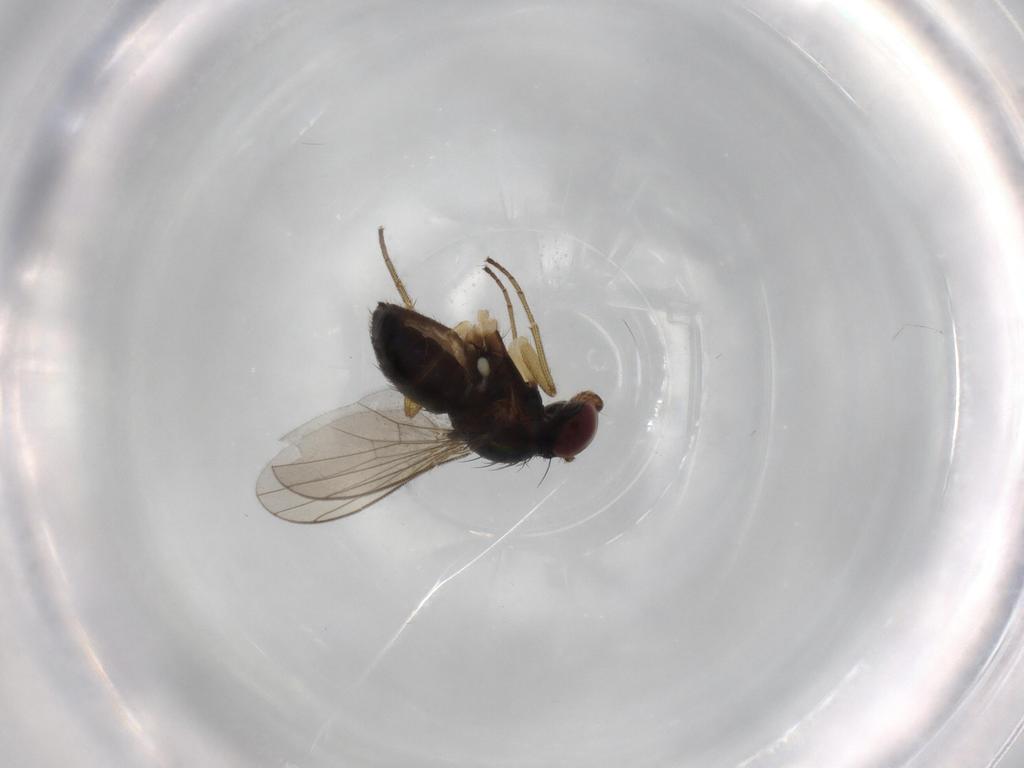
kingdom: Animalia
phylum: Arthropoda
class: Insecta
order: Diptera
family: Dolichopodidae
